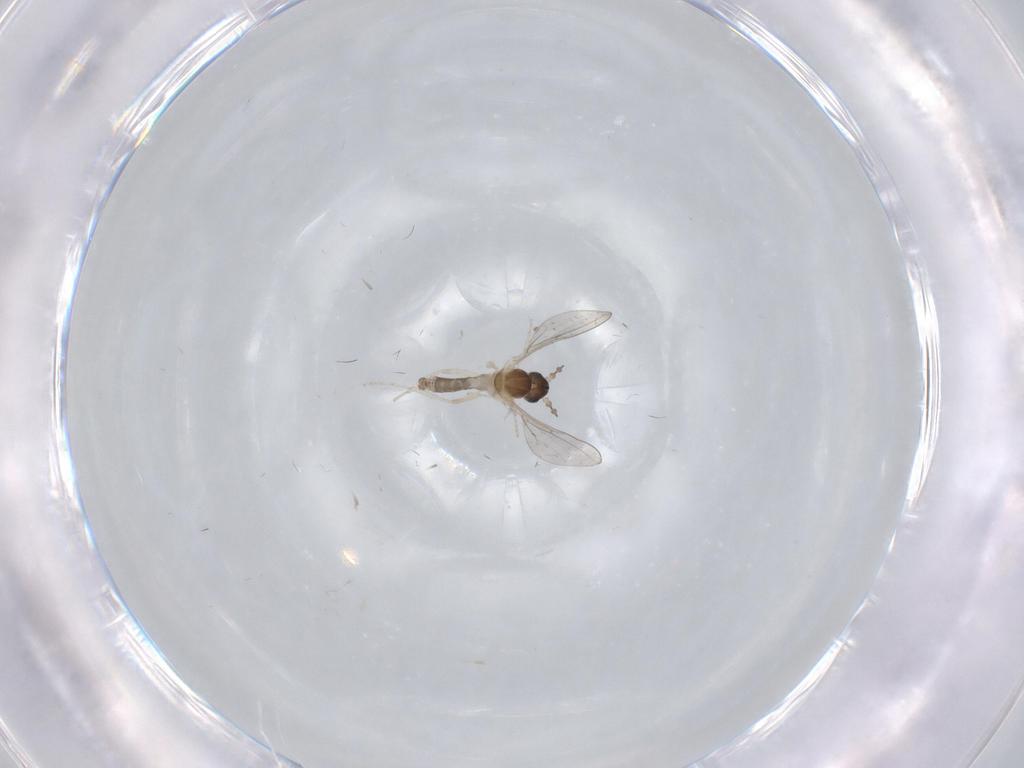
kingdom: Animalia
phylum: Arthropoda
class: Insecta
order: Diptera
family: Cecidomyiidae
